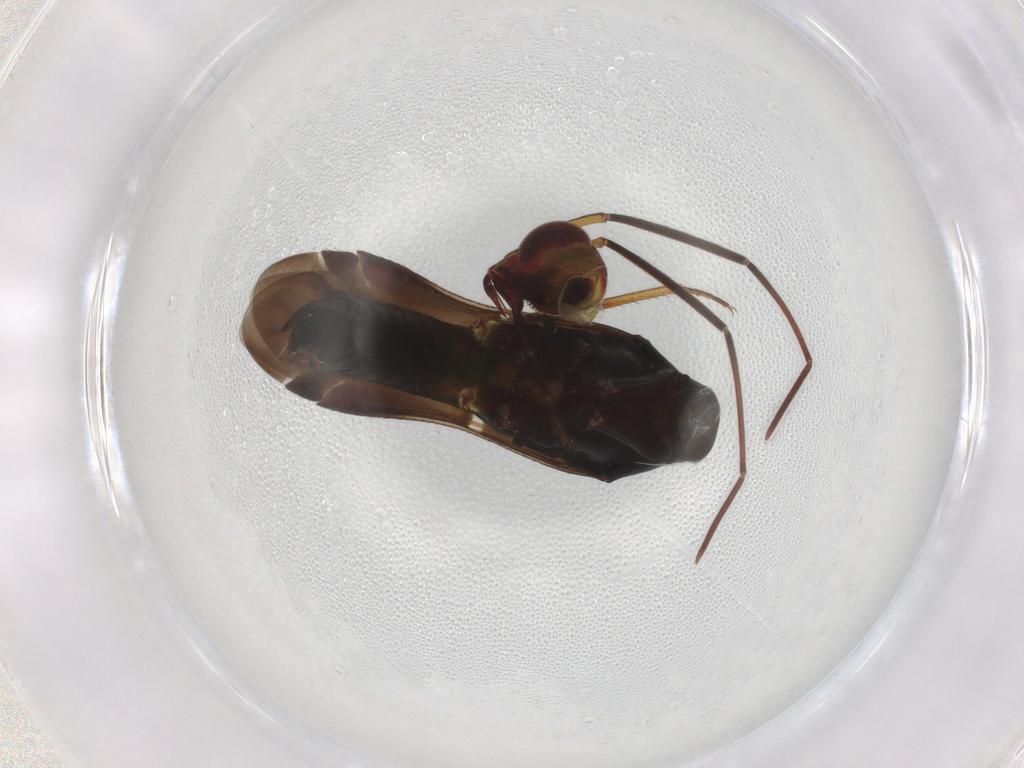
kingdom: Animalia
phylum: Arthropoda
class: Insecta
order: Hemiptera
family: Miridae
